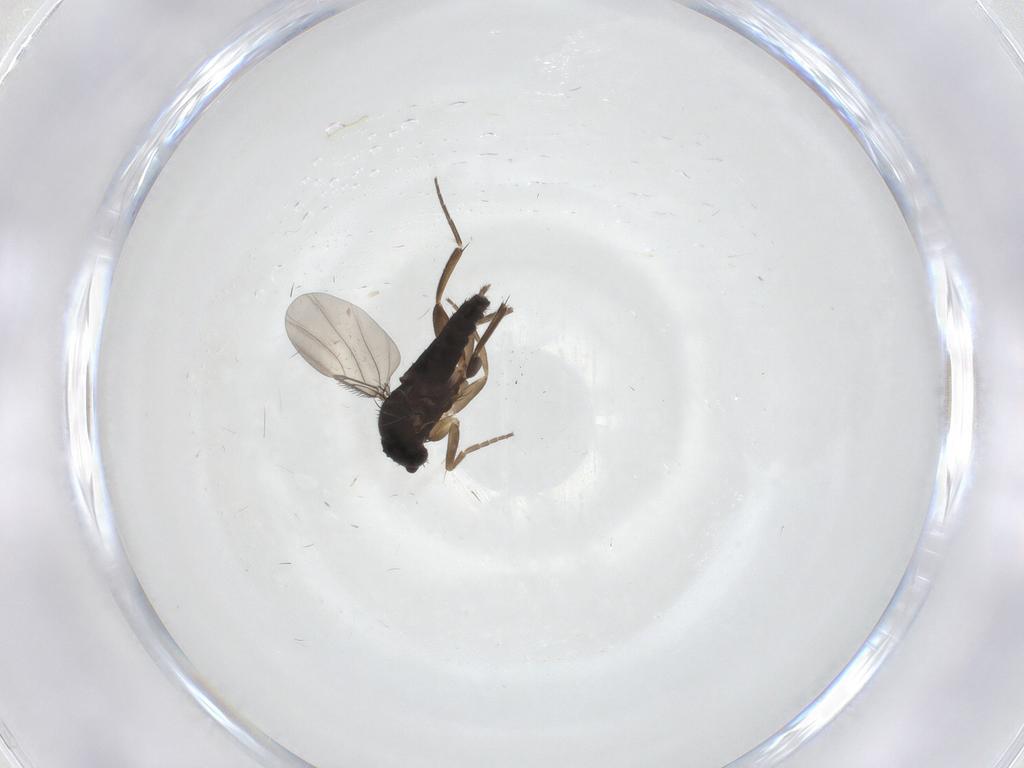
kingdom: Animalia
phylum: Arthropoda
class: Insecta
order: Diptera
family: Phoridae
